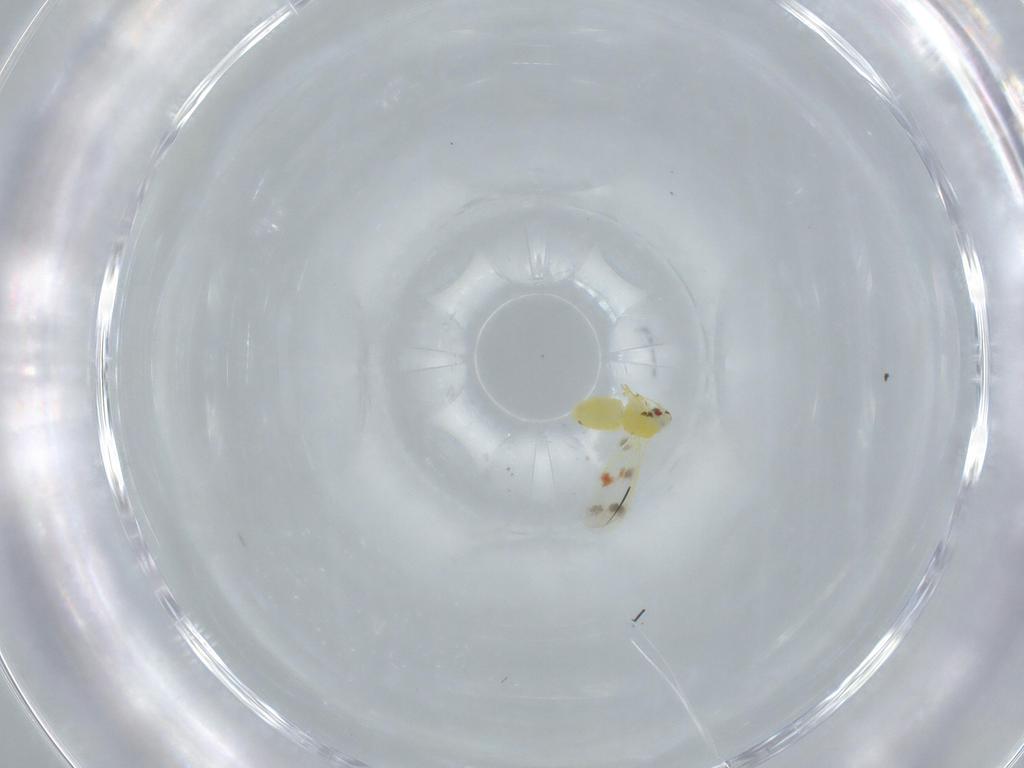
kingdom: Animalia
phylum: Arthropoda
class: Insecta
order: Hemiptera
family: Aleyrodidae
